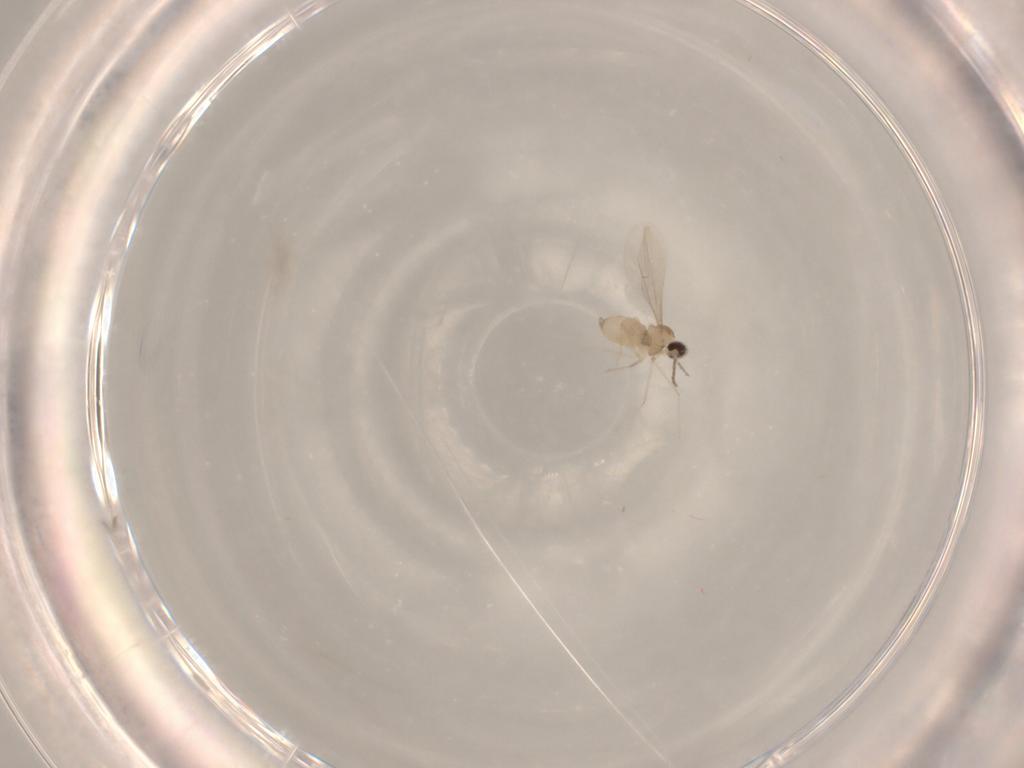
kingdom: Animalia
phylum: Arthropoda
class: Insecta
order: Diptera
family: Cecidomyiidae
